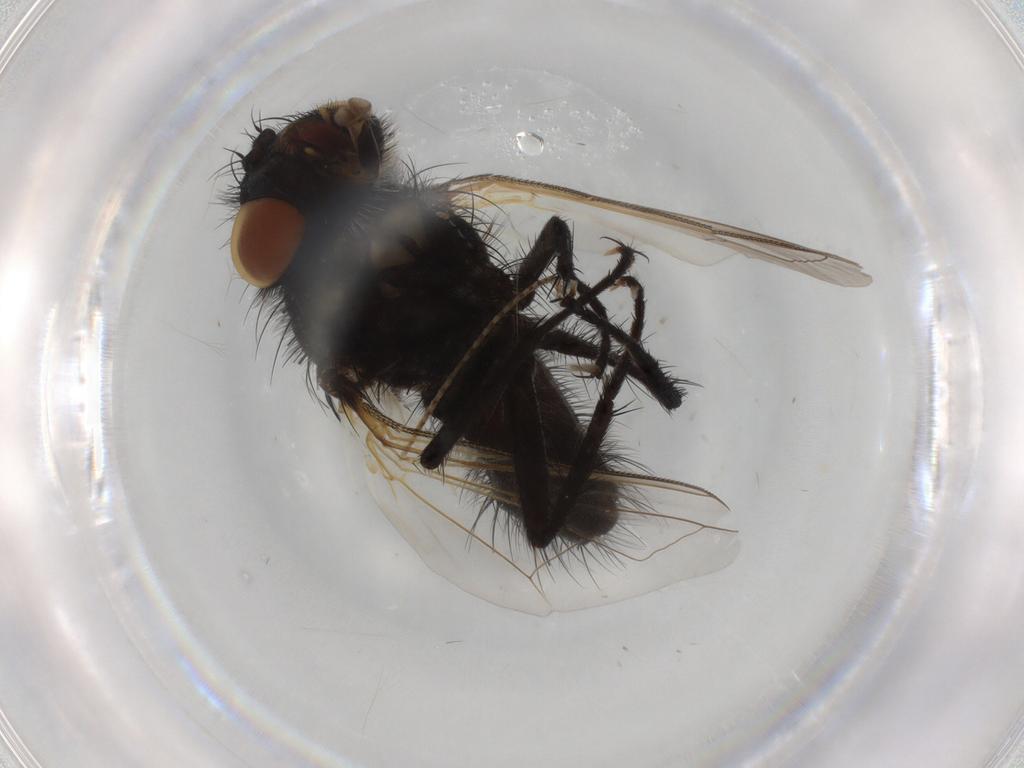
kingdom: Animalia
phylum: Arthropoda
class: Insecta
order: Diptera
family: Tachinidae
